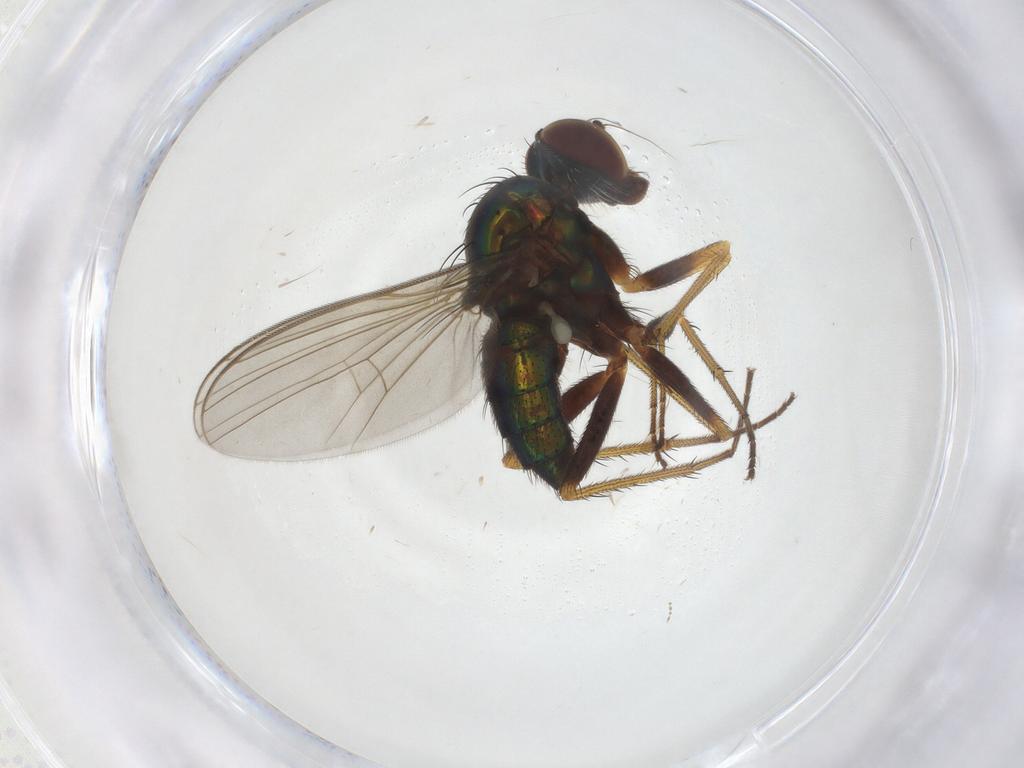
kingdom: Animalia
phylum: Arthropoda
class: Insecta
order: Diptera
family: Dolichopodidae
